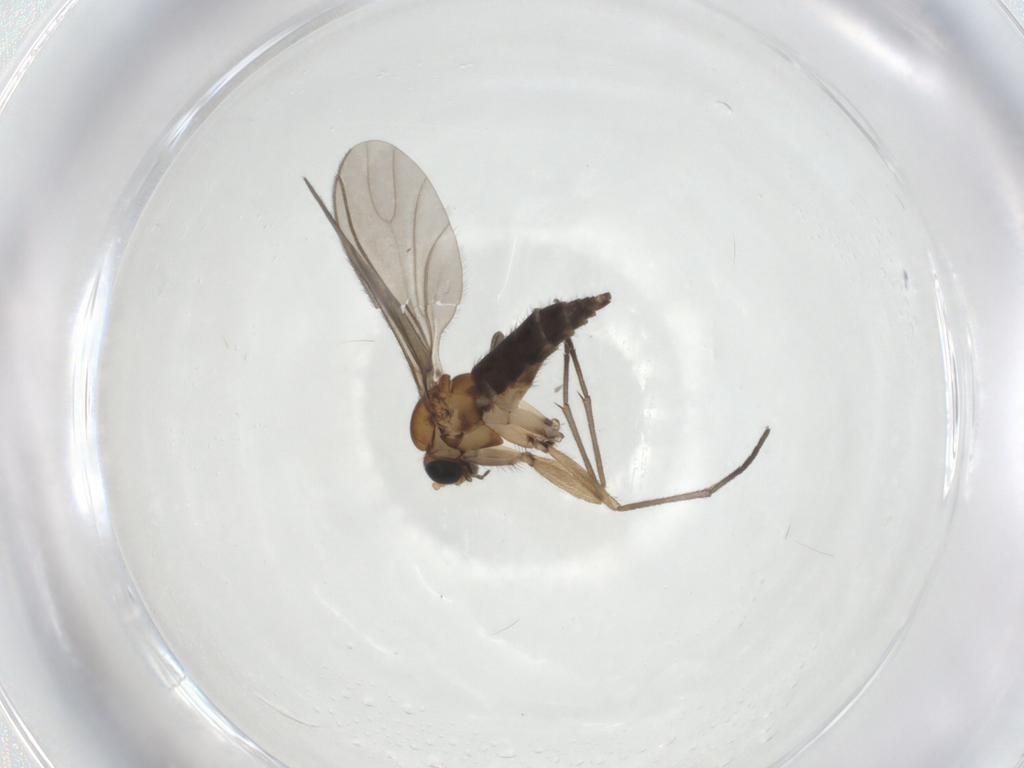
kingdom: Animalia
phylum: Arthropoda
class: Insecta
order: Diptera
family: Sciaridae
